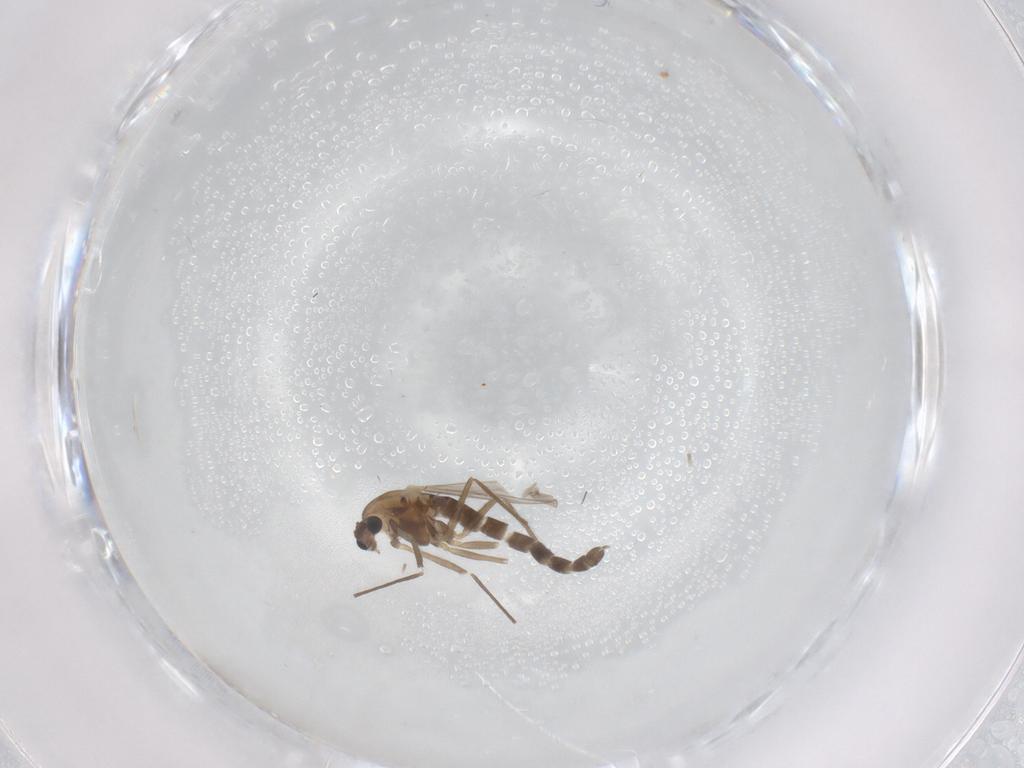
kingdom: Animalia
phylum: Arthropoda
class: Insecta
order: Diptera
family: Chironomidae
